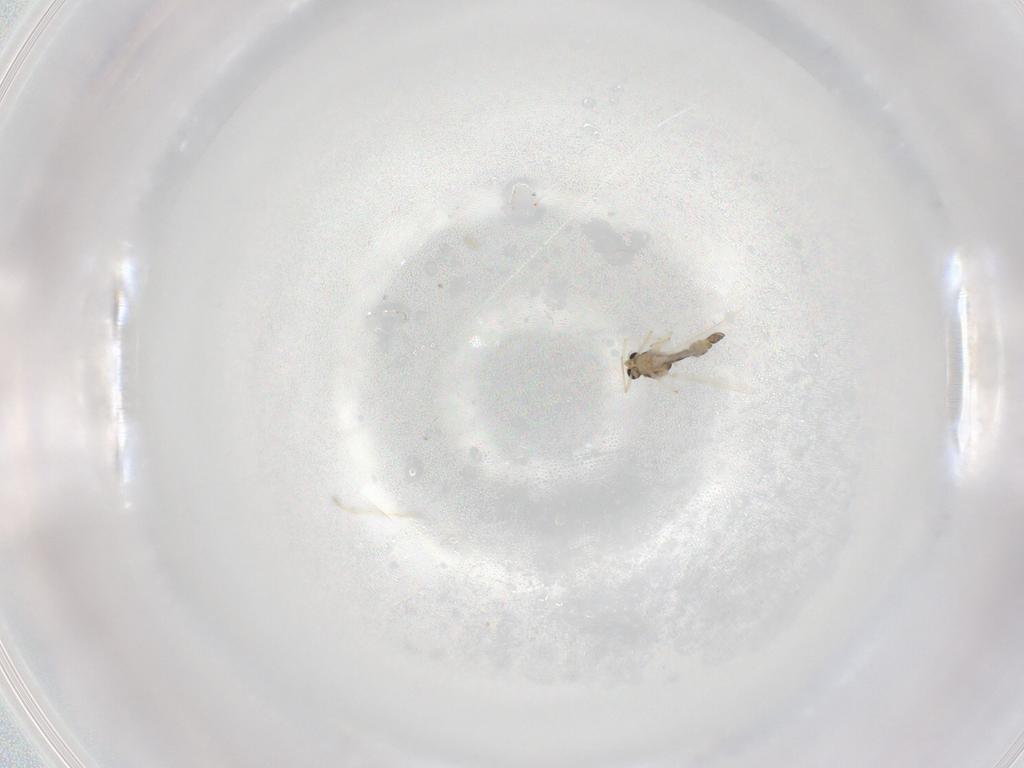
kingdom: Animalia
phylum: Arthropoda
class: Insecta
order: Diptera
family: Chironomidae
